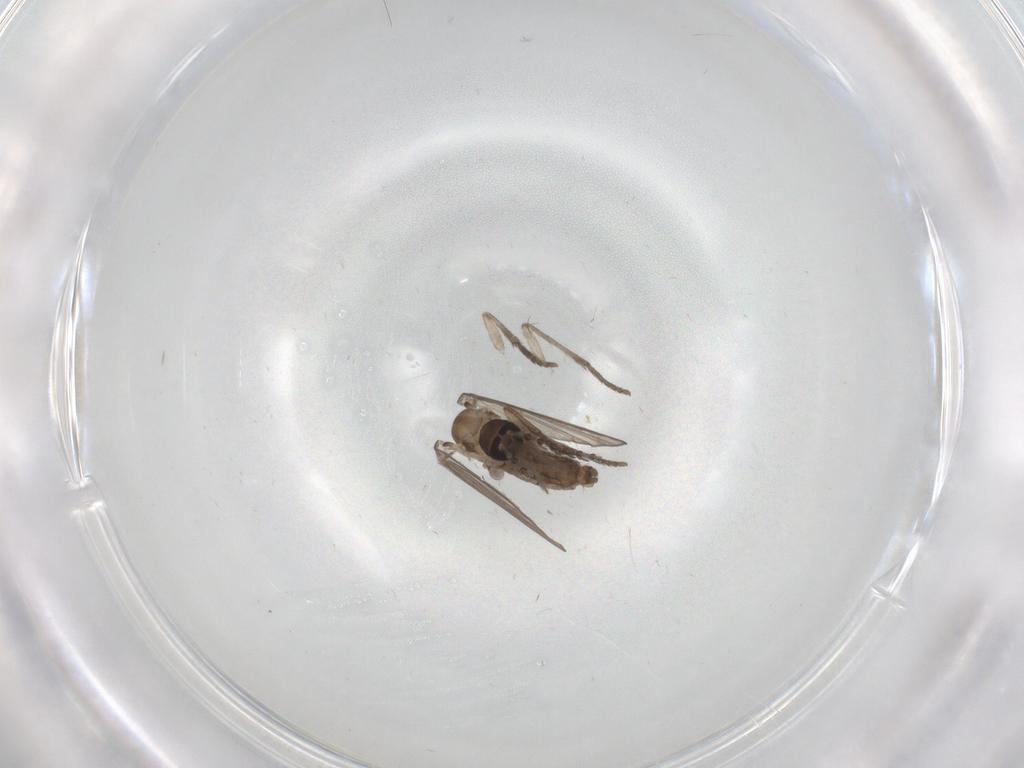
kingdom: Animalia
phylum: Arthropoda
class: Insecta
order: Diptera
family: Psychodidae
